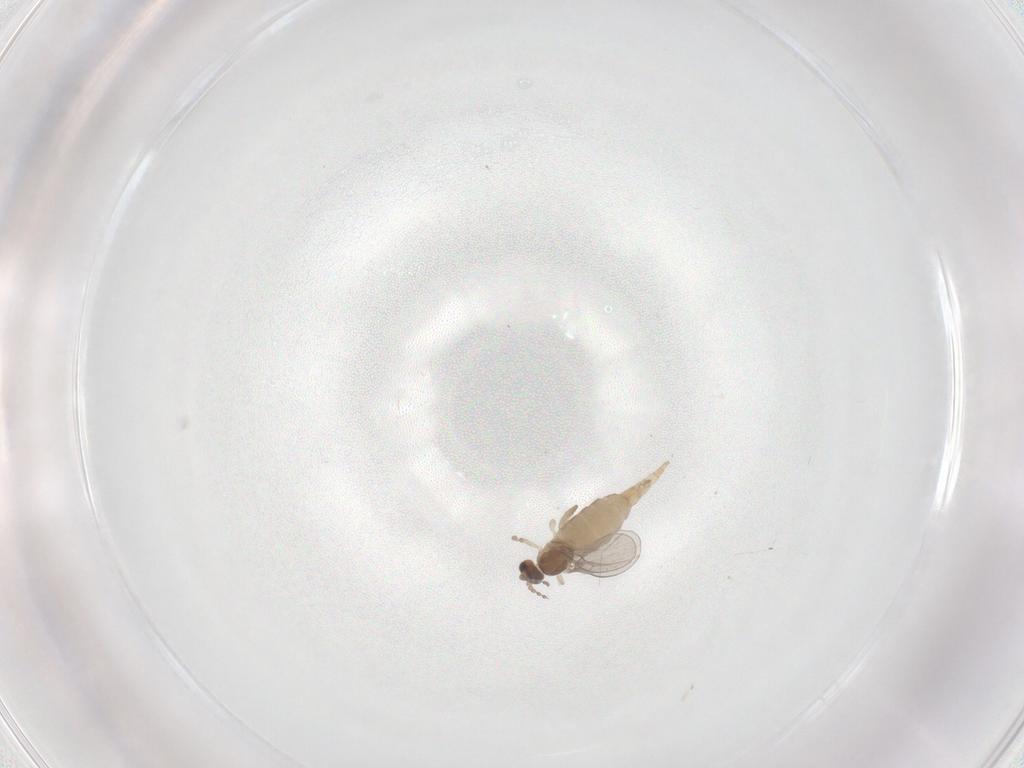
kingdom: Animalia
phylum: Arthropoda
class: Insecta
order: Diptera
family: Cecidomyiidae
